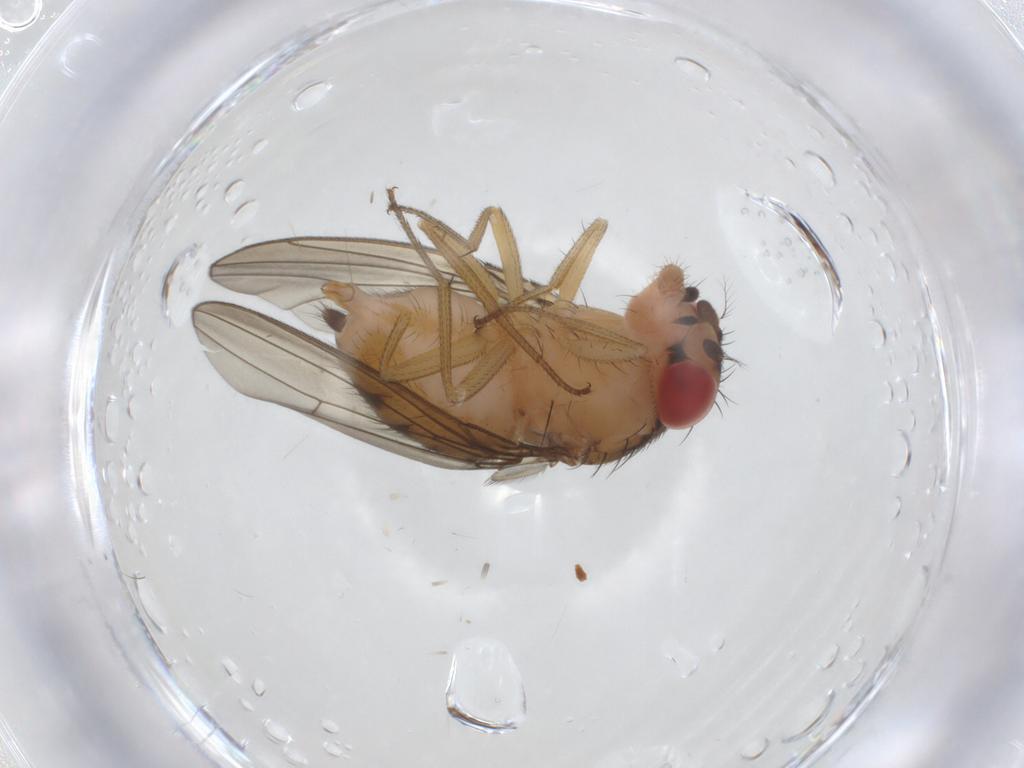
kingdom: Animalia
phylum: Arthropoda
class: Insecta
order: Diptera
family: Drosophilidae
